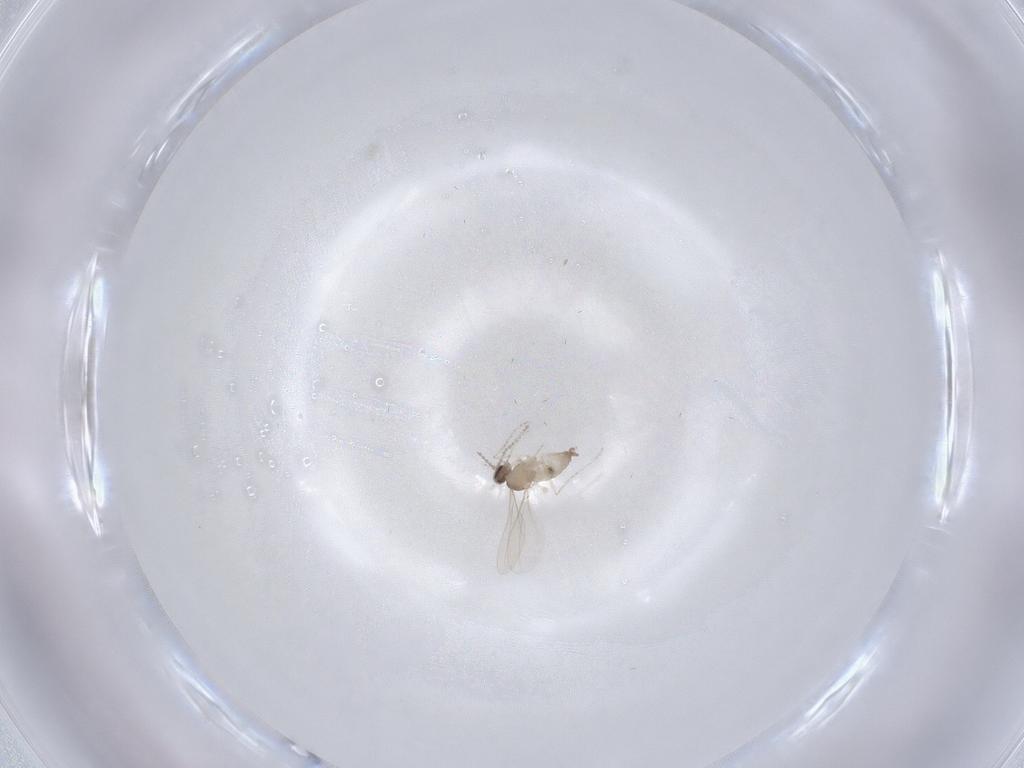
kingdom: Animalia
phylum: Arthropoda
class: Insecta
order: Diptera
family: Cecidomyiidae
